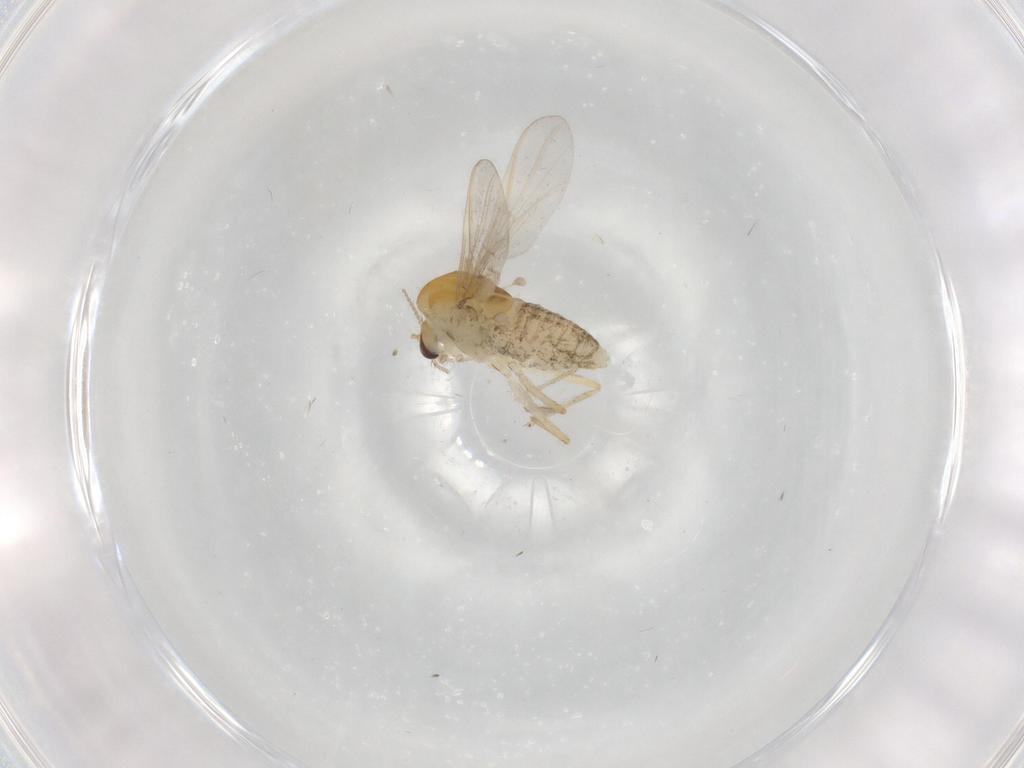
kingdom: Animalia
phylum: Arthropoda
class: Insecta
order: Diptera
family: Chironomidae
